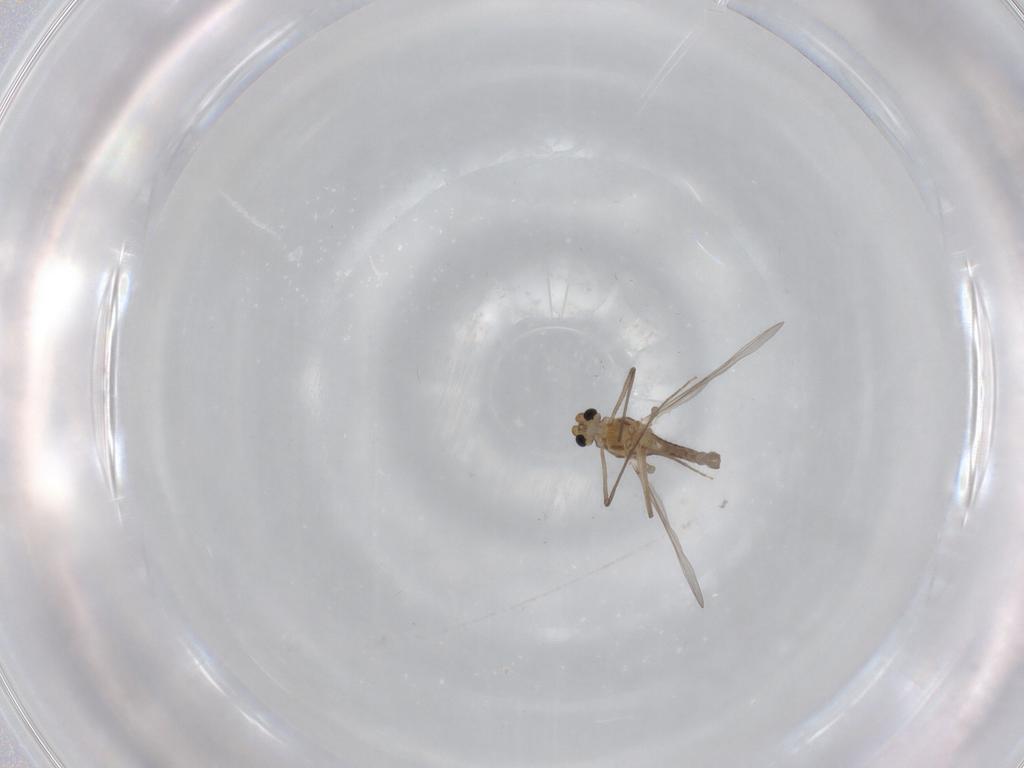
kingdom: Animalia
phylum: Arthropoda
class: Insecta
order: Diptera
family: Chironomidae
